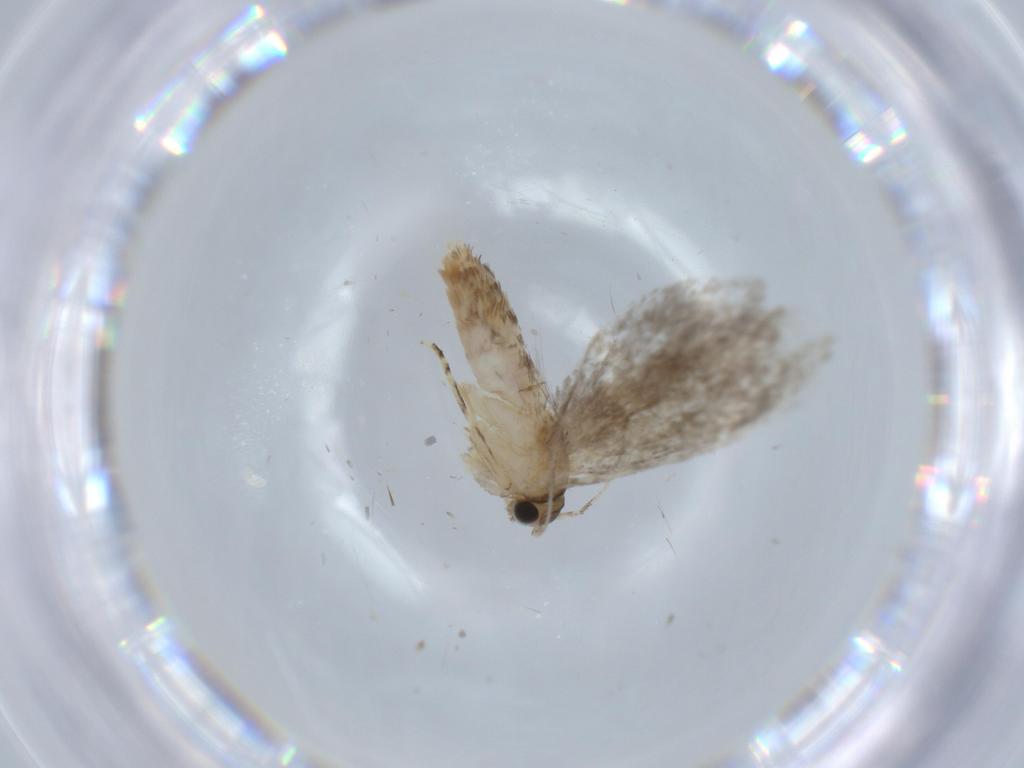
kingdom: Animalia
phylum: Arthropoda
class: Insecta
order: Lepidoptera
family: Tineidae
